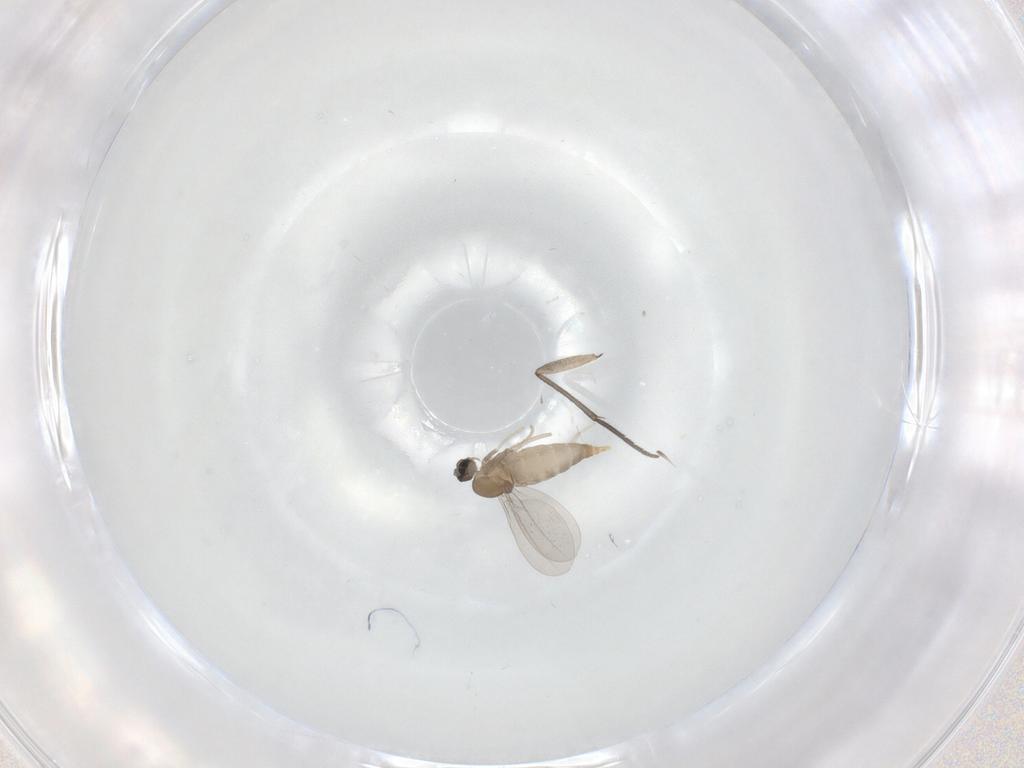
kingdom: Animalia
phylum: Arthropoda
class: Insecta
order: Diptera
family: Cecidomyiidae
